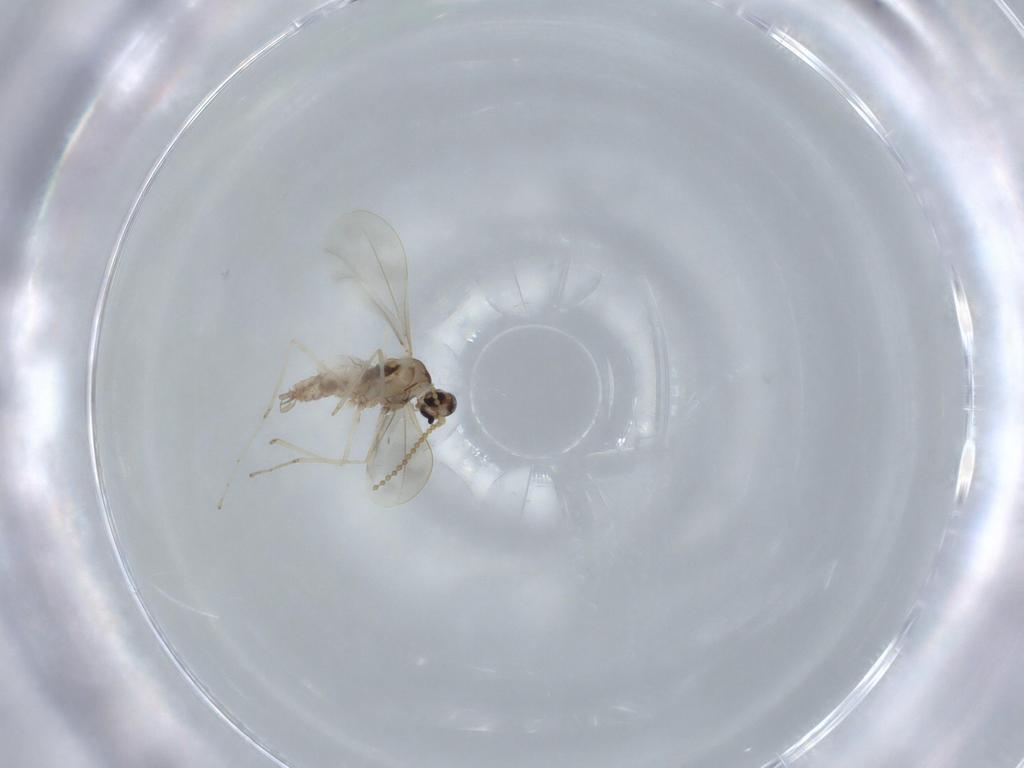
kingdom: Animalia
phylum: Arthropoda
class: Insecta
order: Diptera
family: Cecidomyiidae
